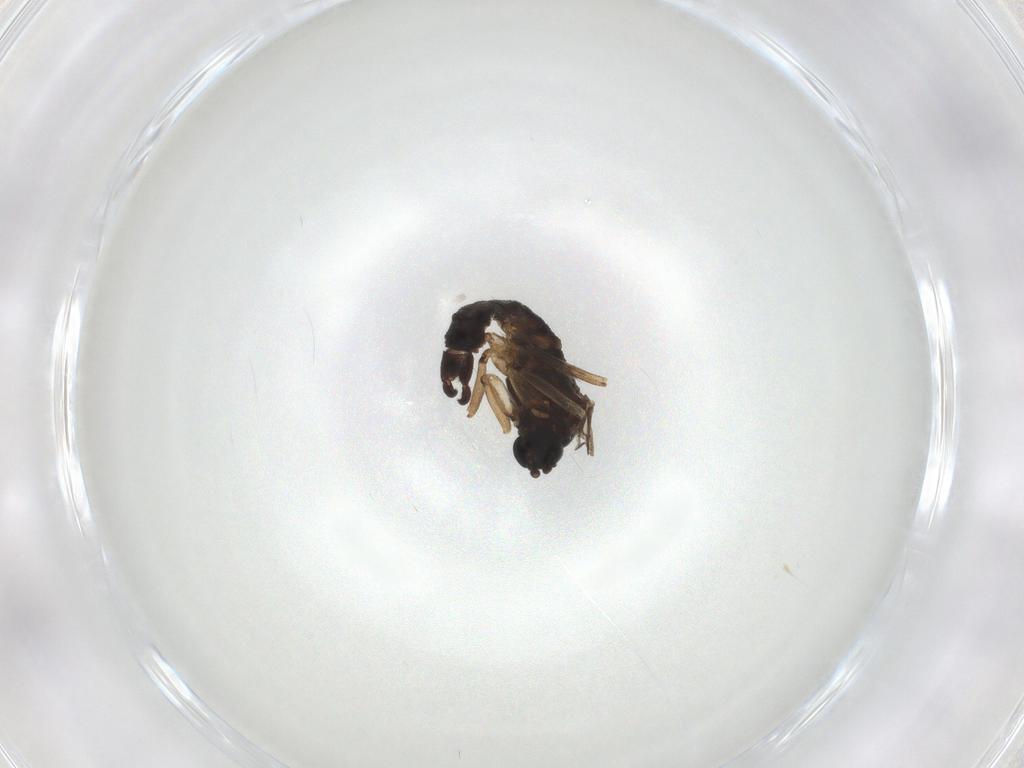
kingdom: Animalia
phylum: Arthropoda
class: Insecta
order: Diptera
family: Sciaridae
